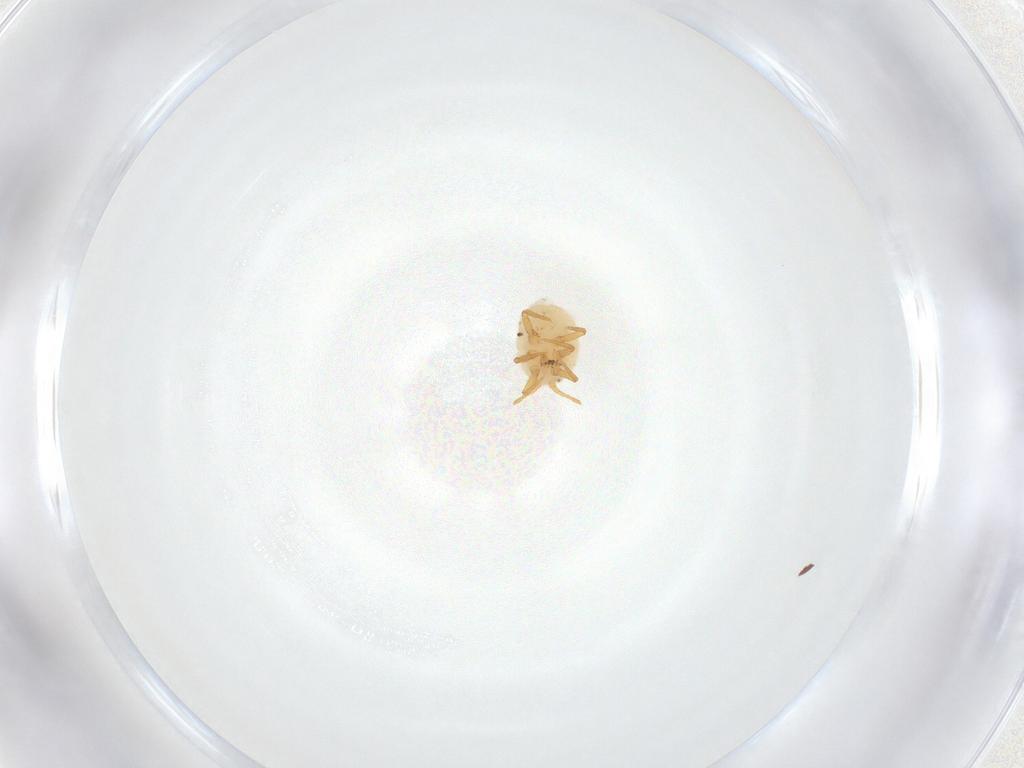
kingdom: Animalia
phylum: Arthropoda
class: Insecta
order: Hemiptera
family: Ortheziidae
